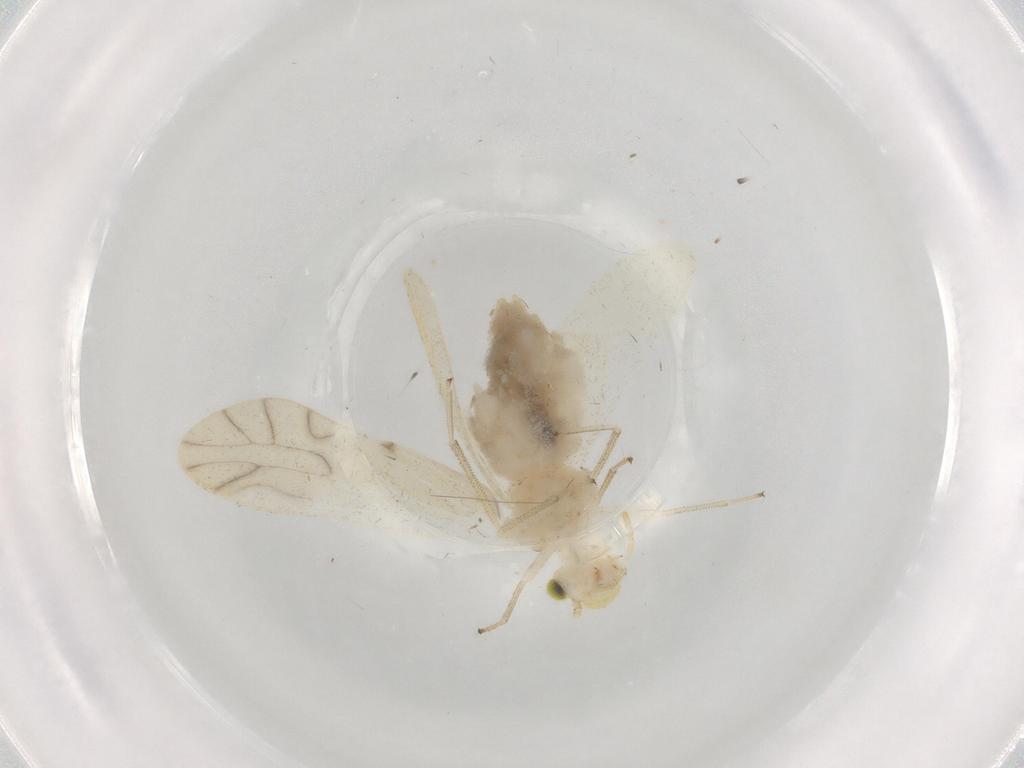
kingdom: Animalia
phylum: Arthropoda
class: Insecta
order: Psocodea
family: Caeciliusidae
